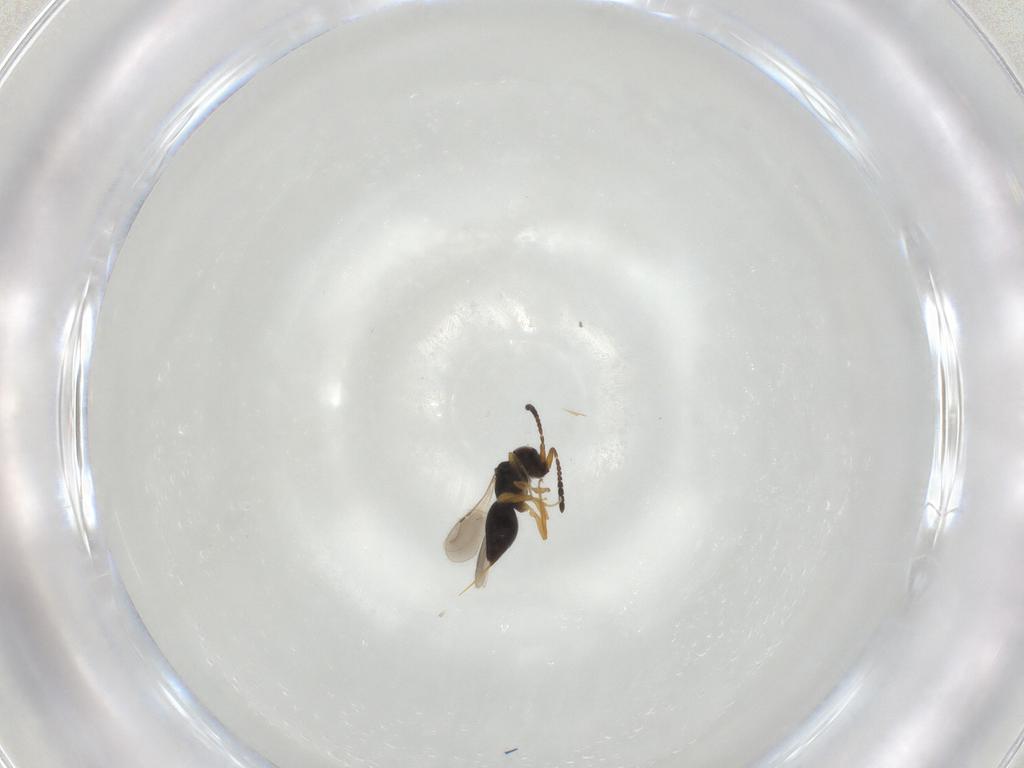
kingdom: Animalia
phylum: Arthropoda
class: Insecta
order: Hymenoptera
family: Ceraphronidae
